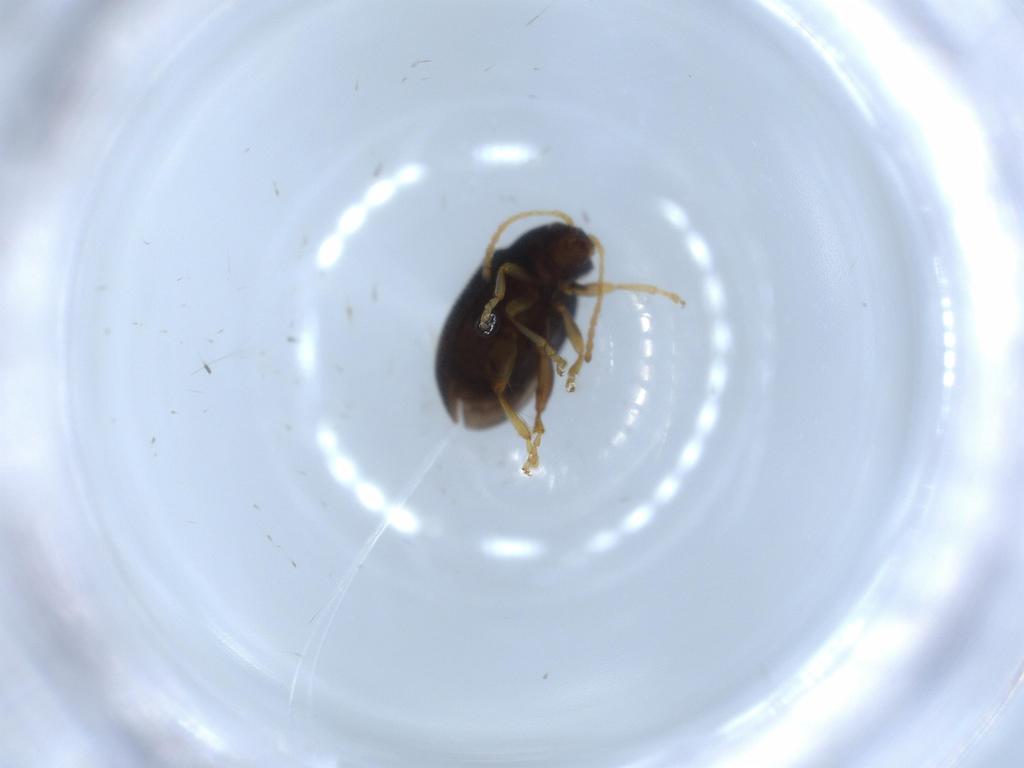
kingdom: Animalia
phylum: Arthropoda
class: Insecta
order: Coleoptera
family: Chrysomelidae
